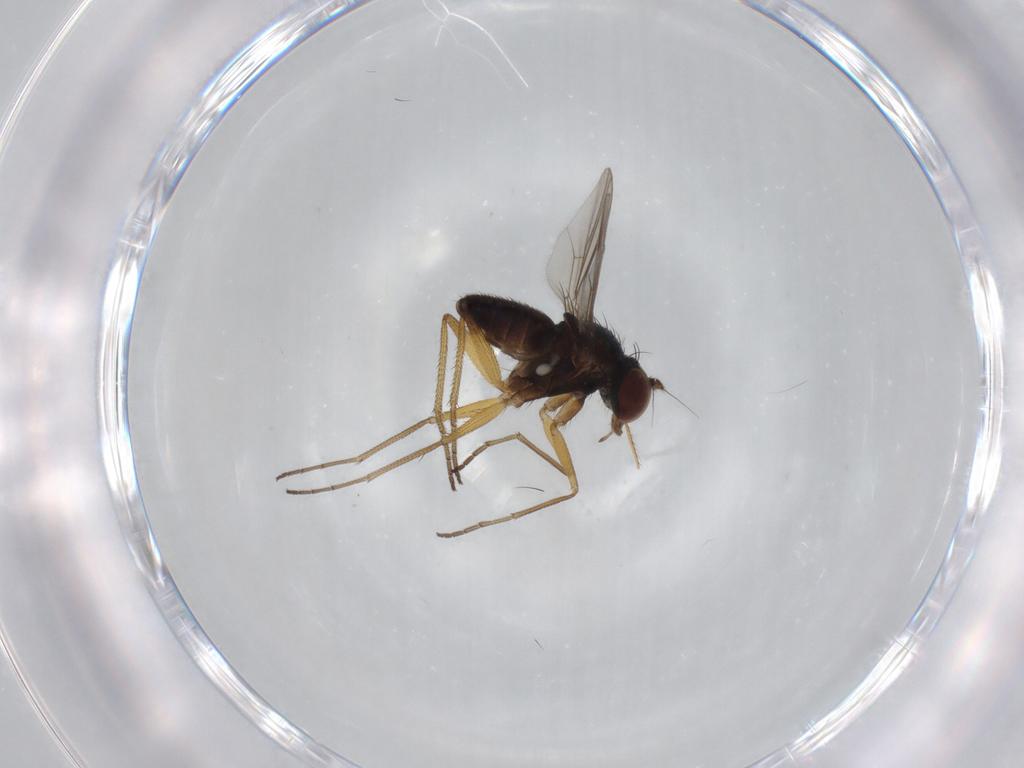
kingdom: Animalia
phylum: Arthropoda
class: Insecta
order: Diptera
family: Dolichopodidae
